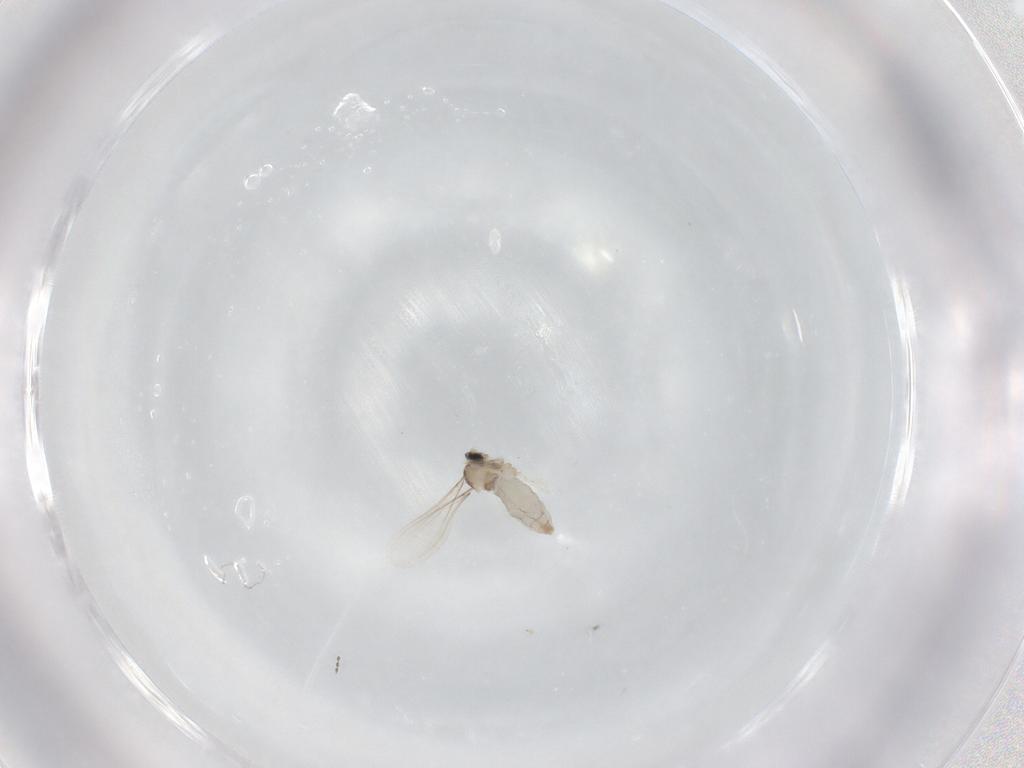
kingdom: Animalia
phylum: Arthropoda
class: Insecta
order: Diptera
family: Cecidomyiidae
